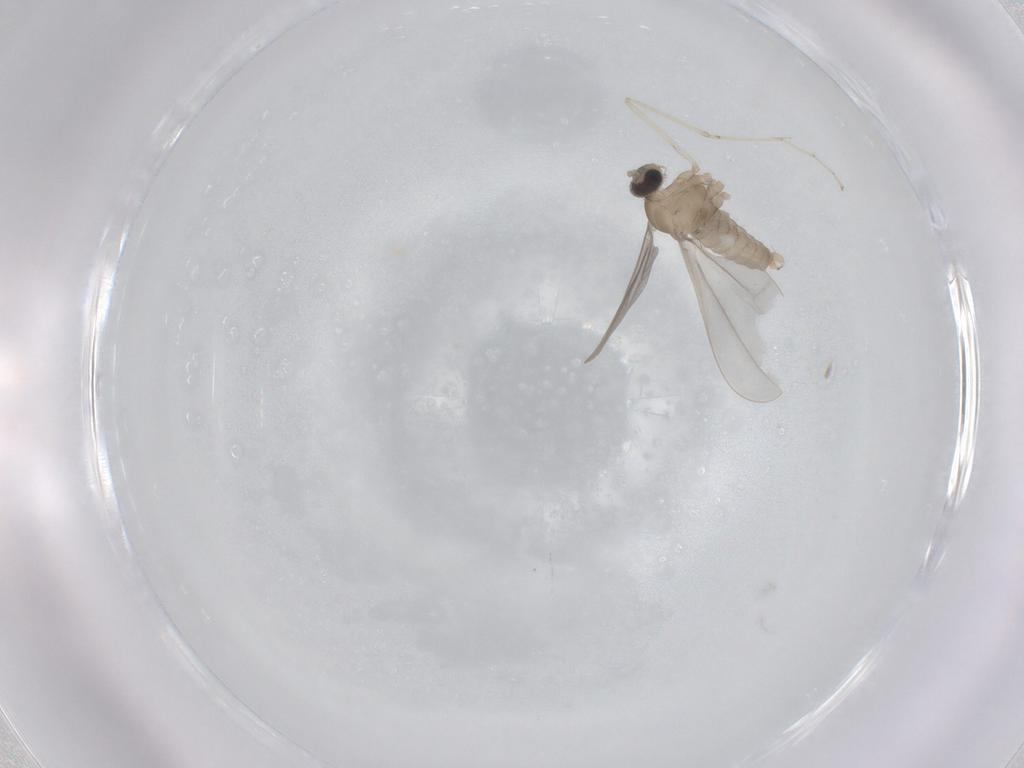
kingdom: Animalia
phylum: Arthropoda
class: Insecta
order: Diptera
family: Cecidomyiidae
